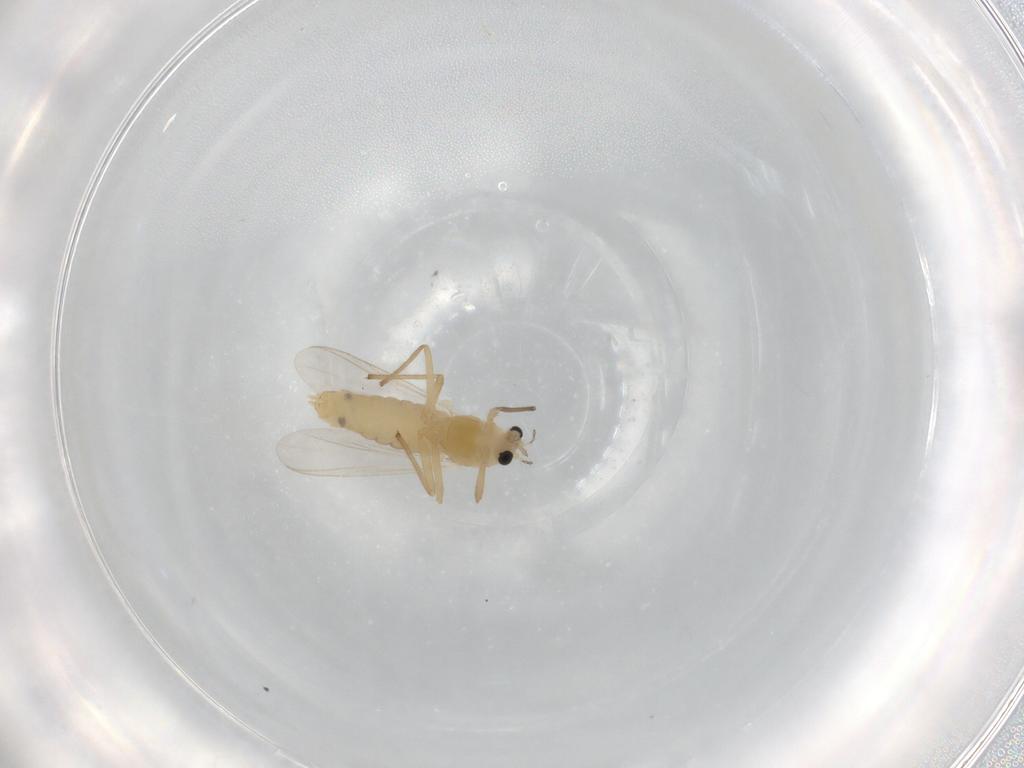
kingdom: Animalia
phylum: Arthropoda
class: Insecta
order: Diptera
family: Chironomidae
